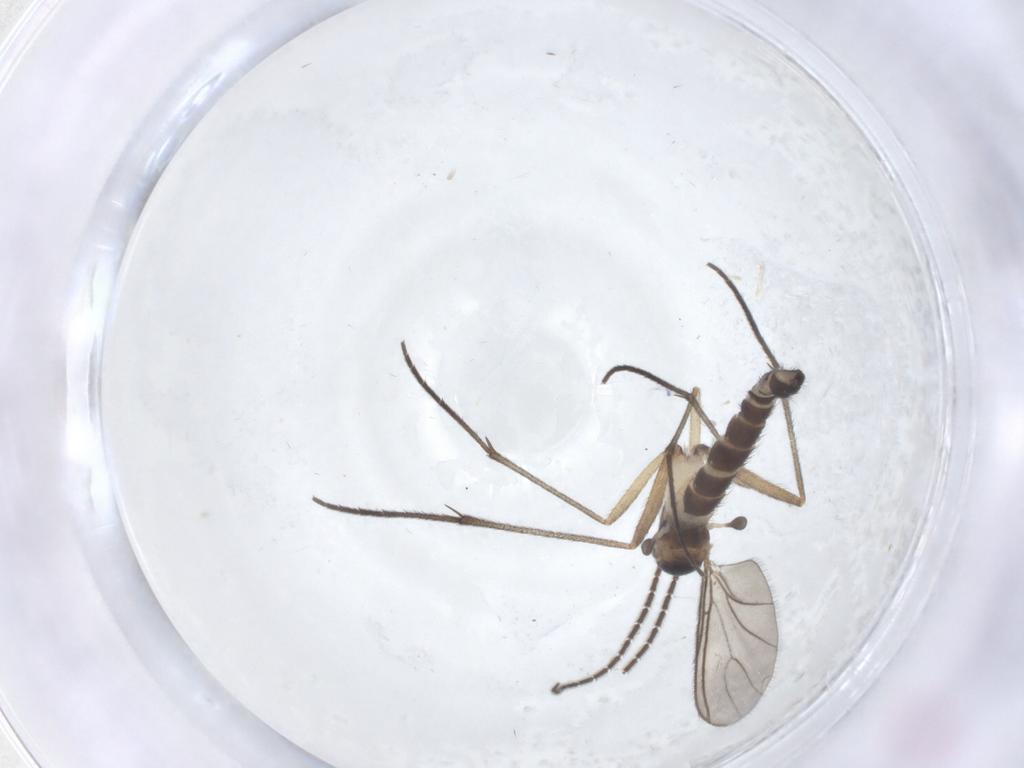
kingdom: Animalia
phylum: Arthropoda
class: Insecta
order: Diptera
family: Sciaridae
